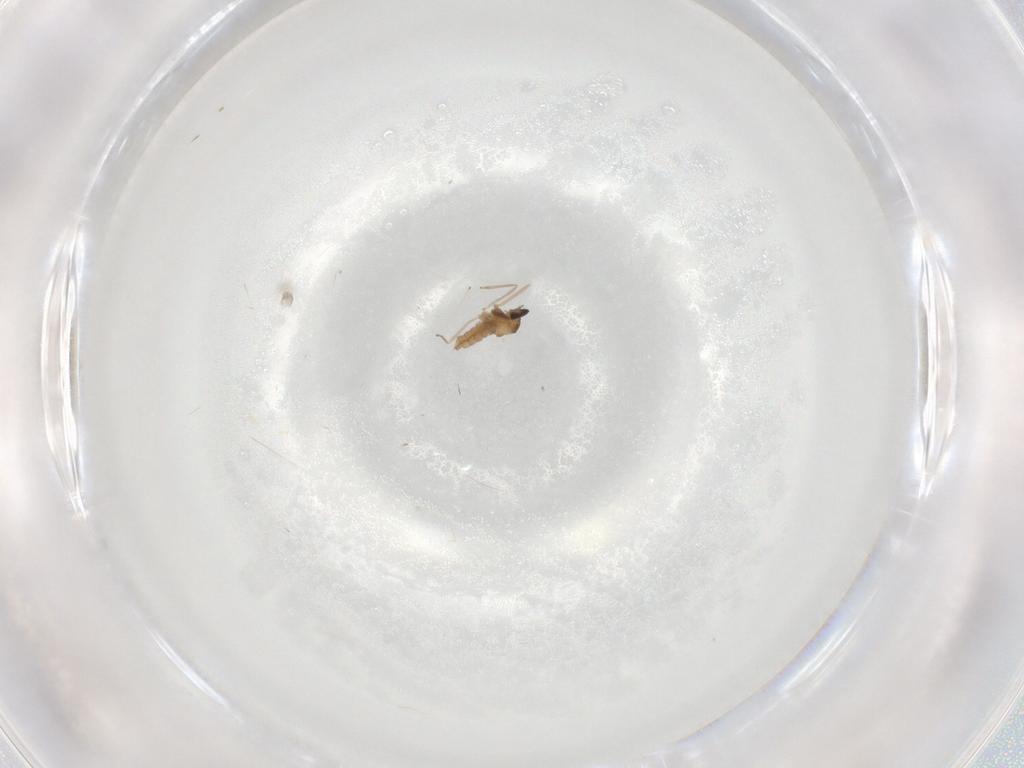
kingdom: Animalia
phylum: Arthropoda
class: Insecta
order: Diptera
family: Cecidomyiidae
